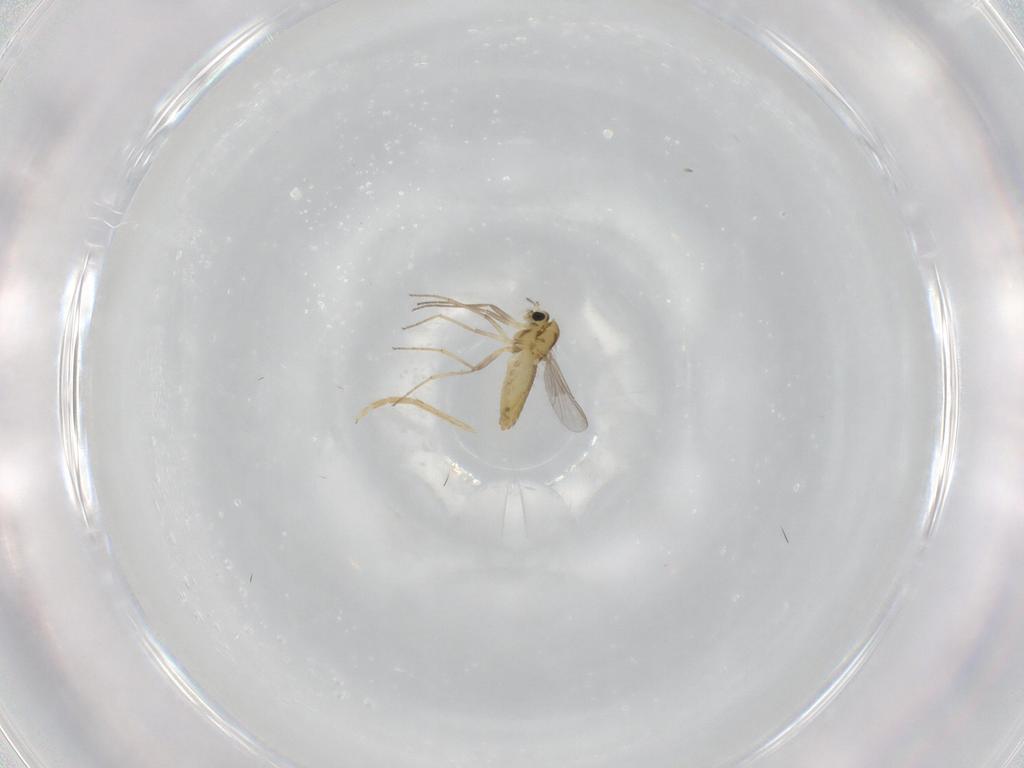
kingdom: Animalia
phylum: Arthropoda
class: Insecta
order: Diptera
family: Chironomidae
